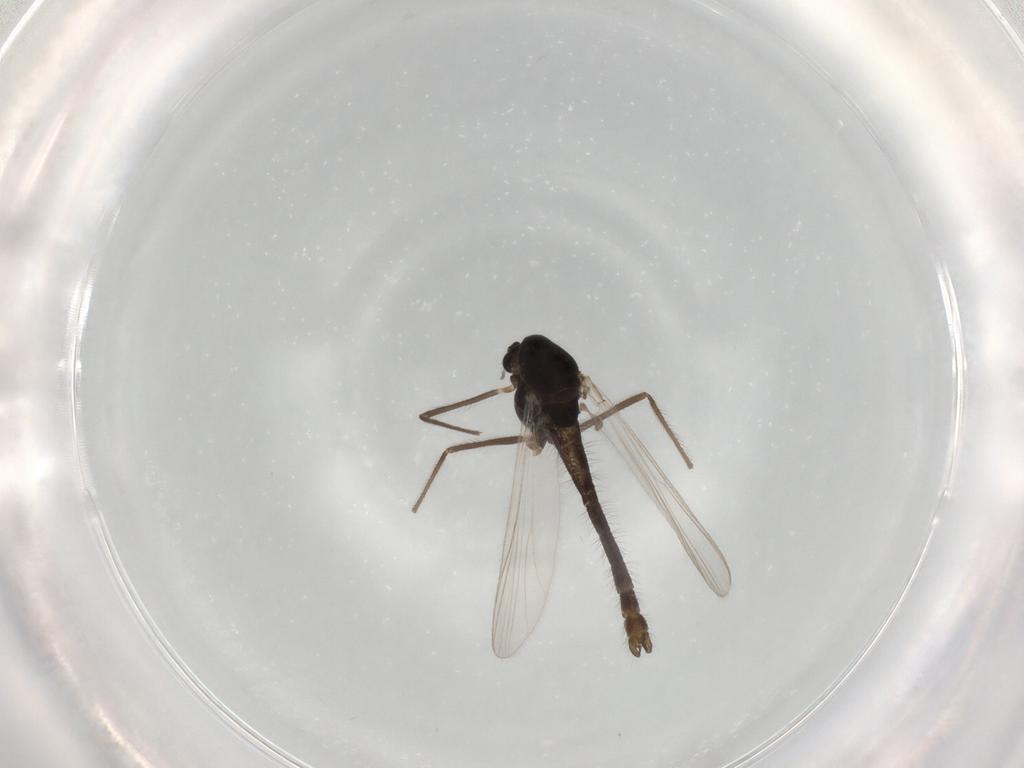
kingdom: Animalia
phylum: Arthropoda
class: Insecta
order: Diptera
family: Chironomidae
